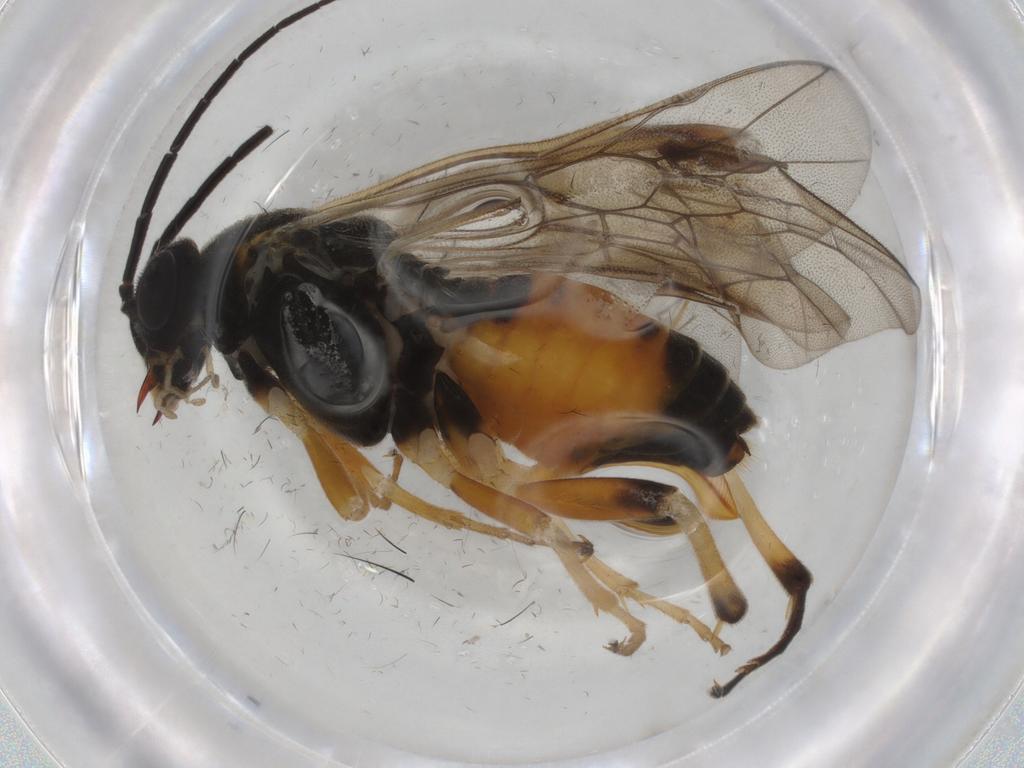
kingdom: Animalia
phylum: Arthropoda
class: Insecta
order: Hymenoptera
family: Tenthredinidae
